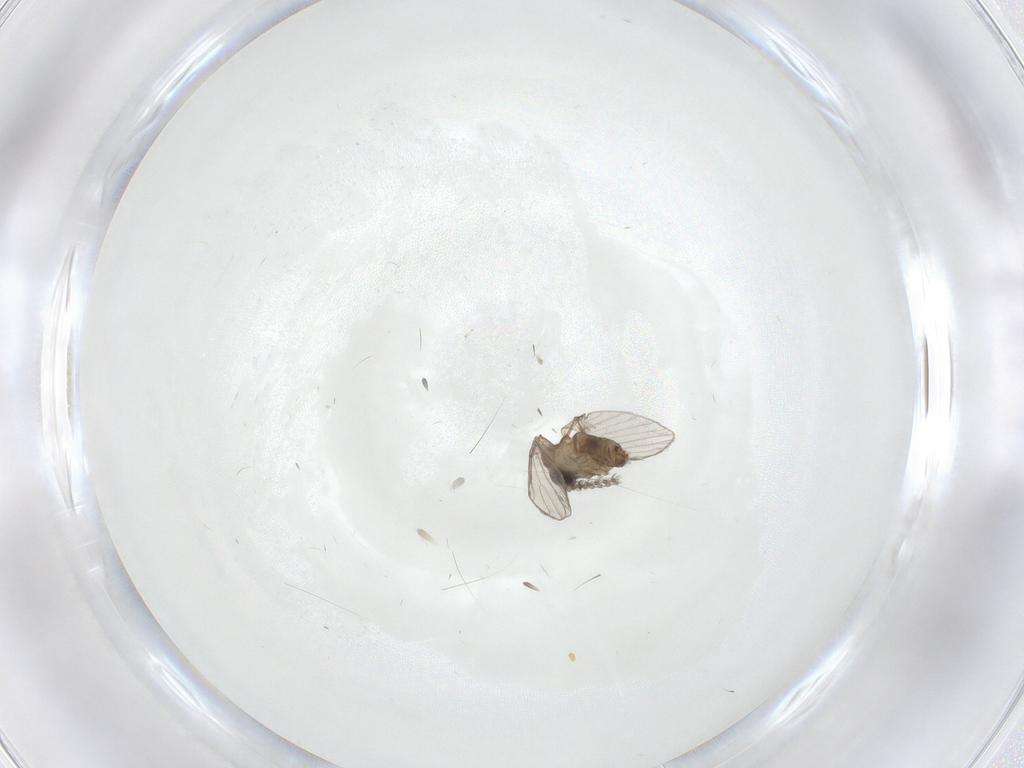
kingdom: Animalia
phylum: Arthropoda
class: Insecta
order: Diptera
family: Psychodidae
